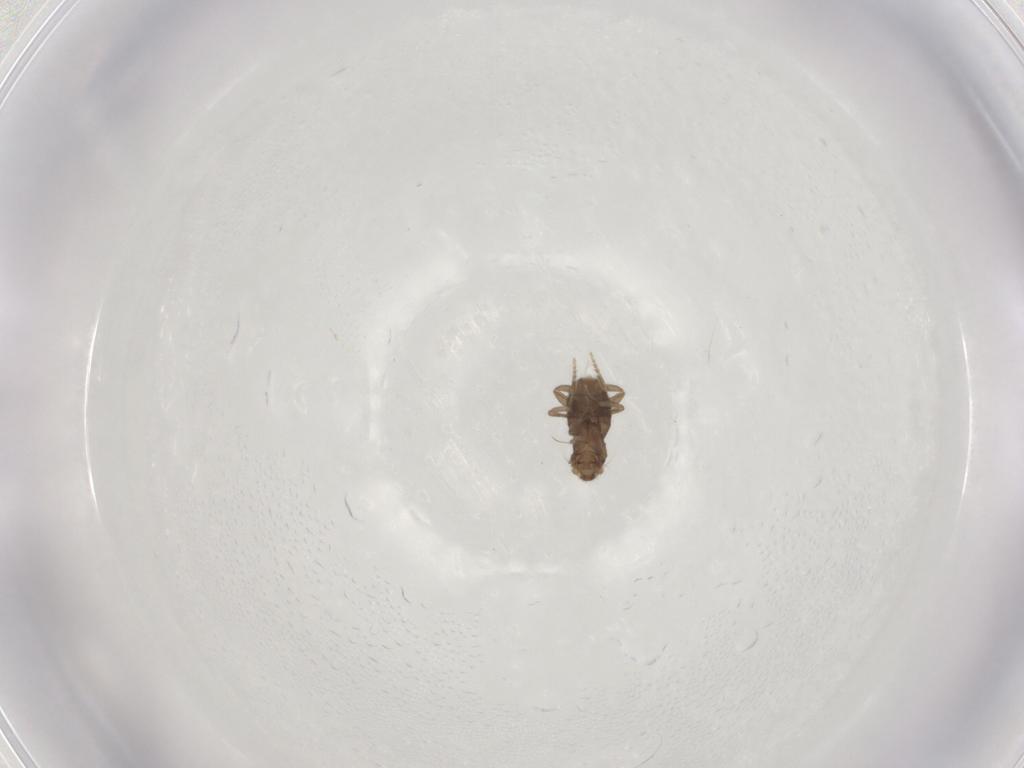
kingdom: Animalia
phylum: Arthropoda
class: Insecta
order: Diptera
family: Phoridae
